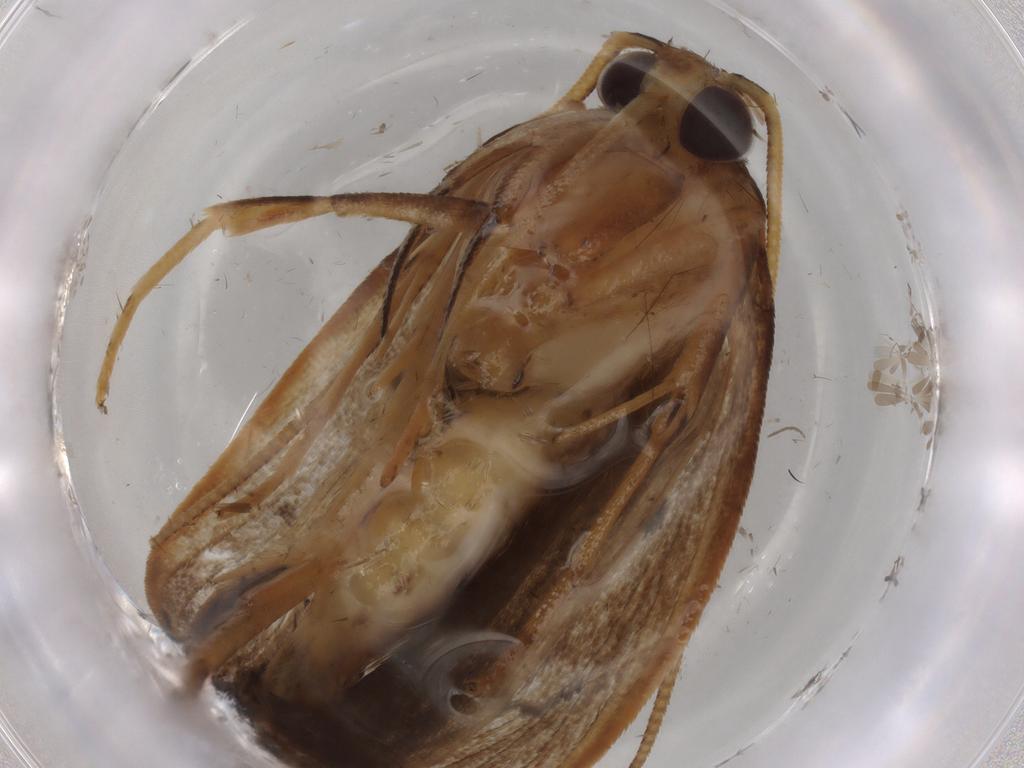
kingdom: Animalia
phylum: Arthropoda
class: Insecta
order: Lepidoptera
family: Gelechiidae
